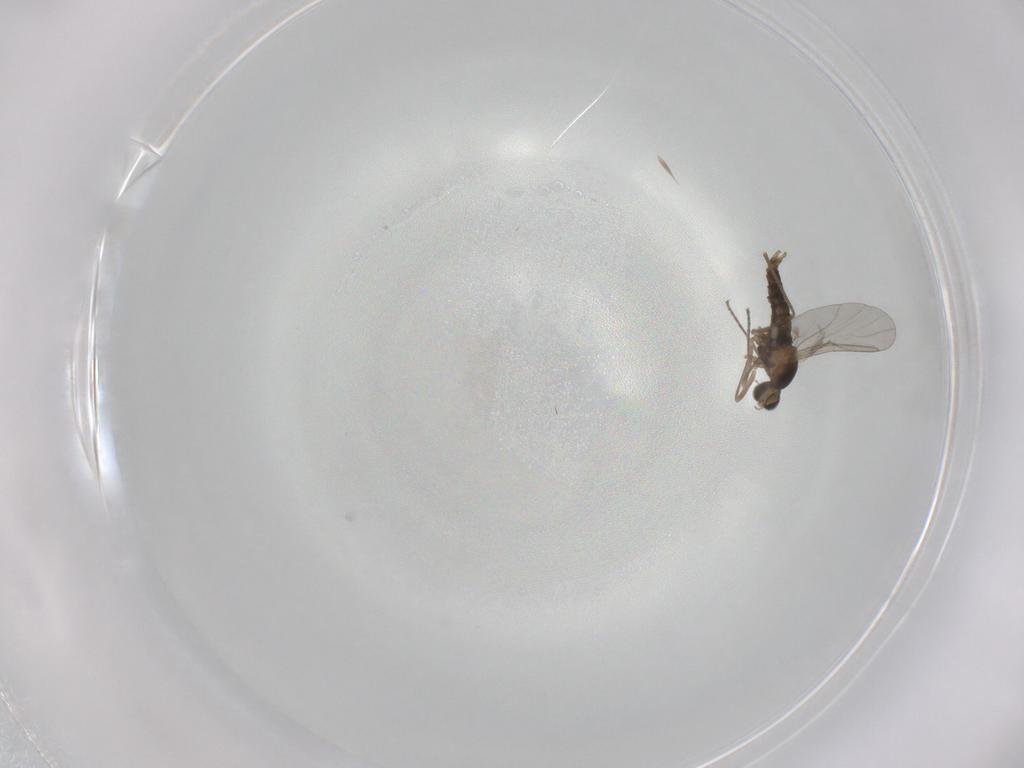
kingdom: Animalia
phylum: Arthropoda
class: Insecta
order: Diptera
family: Cecidomyiidae
